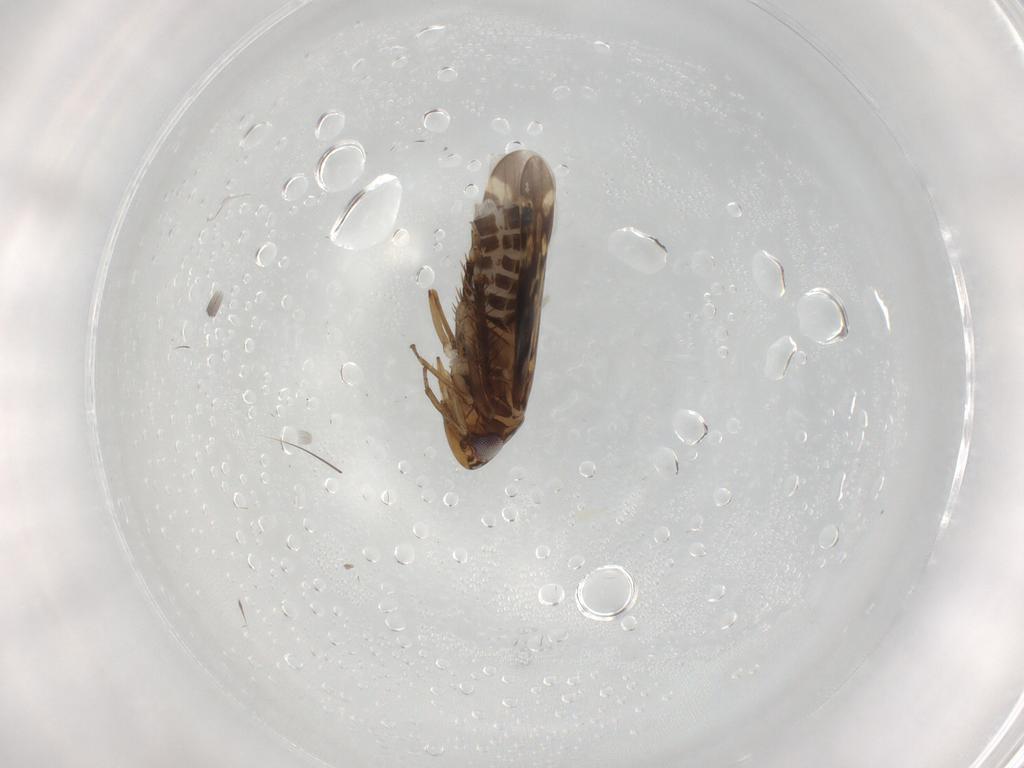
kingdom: Animalia
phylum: Arthropoda
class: Insecta
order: Hemiptera
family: Cicadellidae
